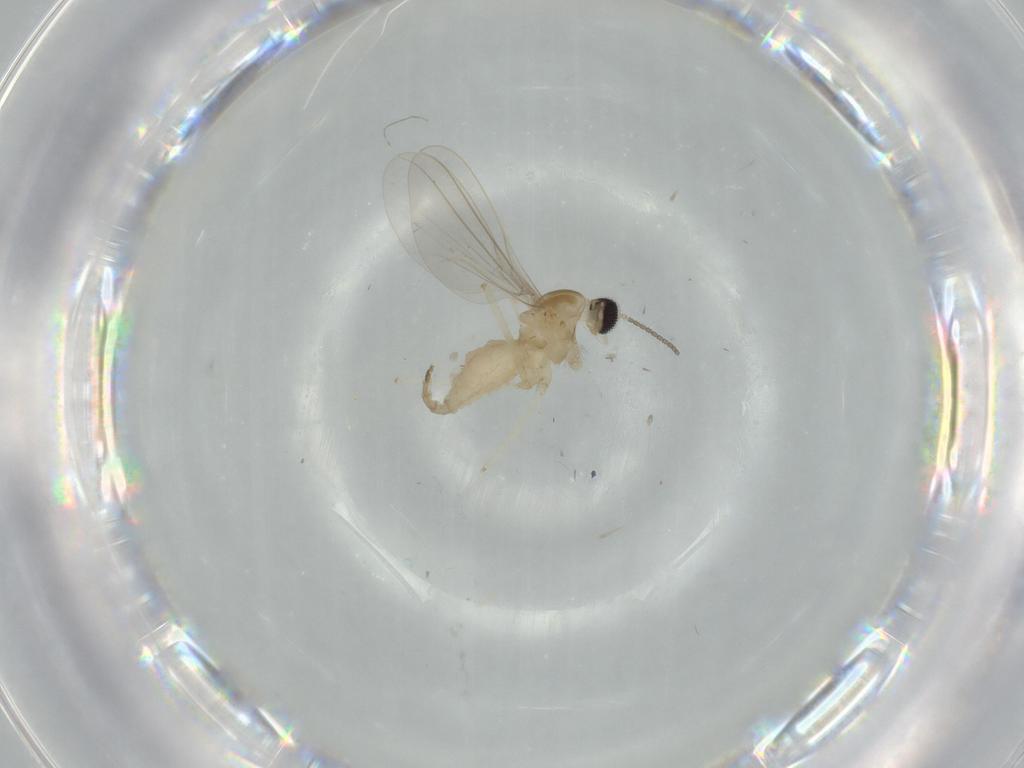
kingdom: Animalia
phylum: Arthropoda
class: Insecta
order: Diptera
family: Cecidomyiidae
